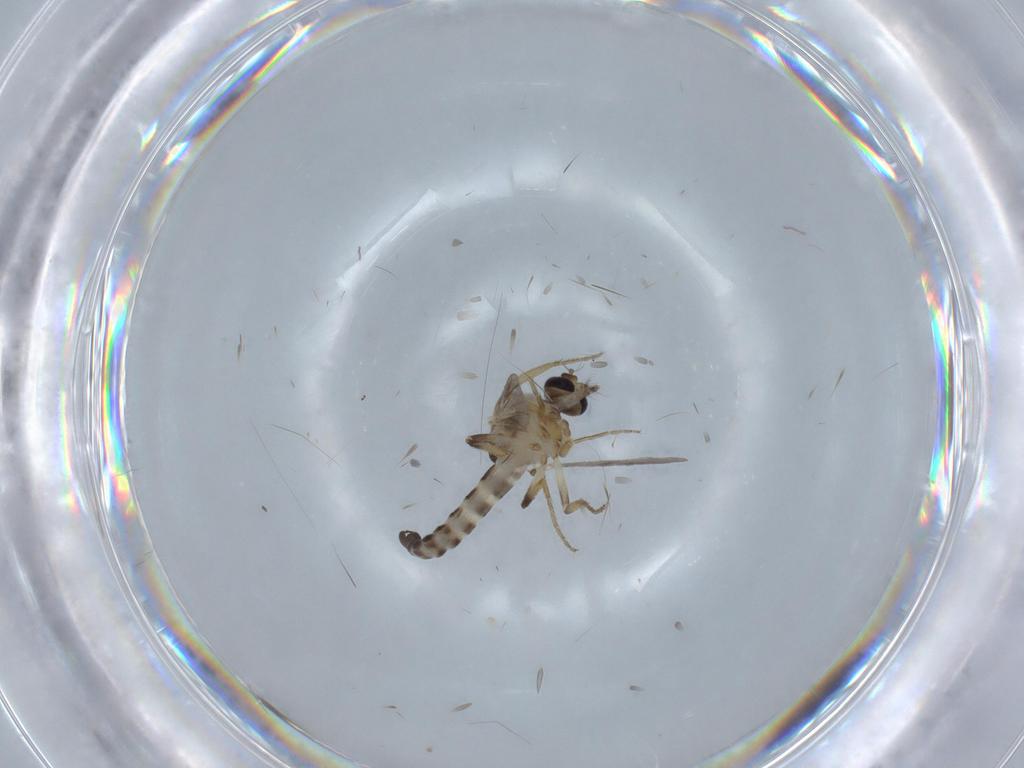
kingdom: Animalia
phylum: Arthropoda
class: Insecta
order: Diptera
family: Ceratopogonidae
